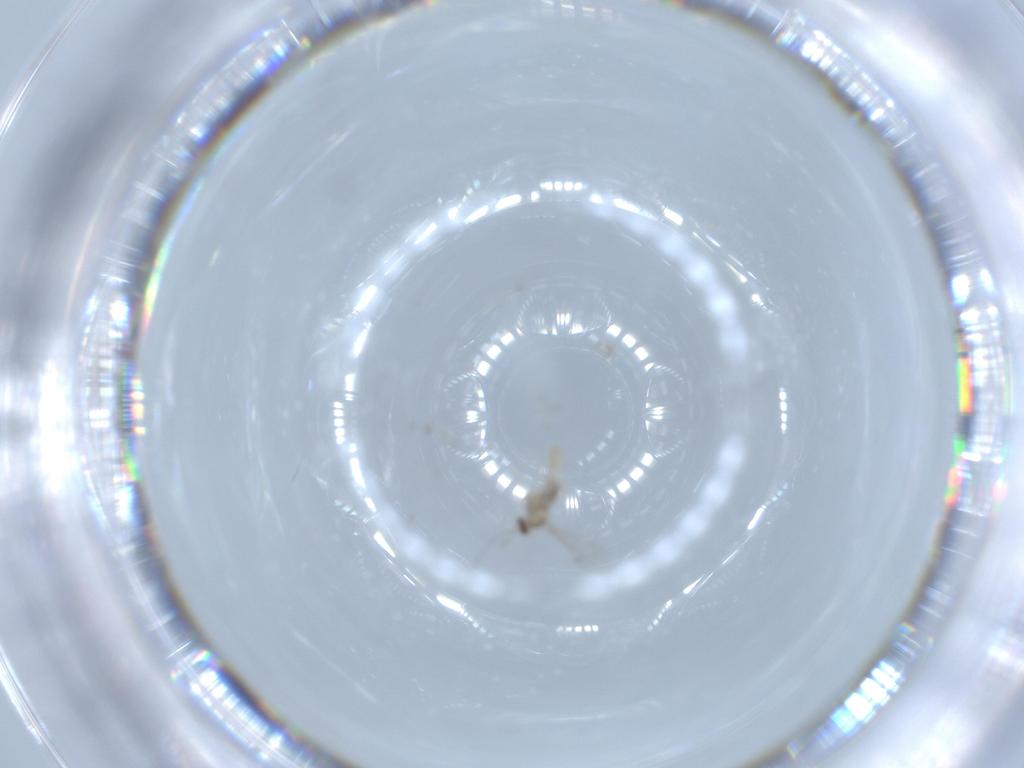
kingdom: Animalia
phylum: Arthropoda
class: Insecta
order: Diptera
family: Cecidomyiidae
